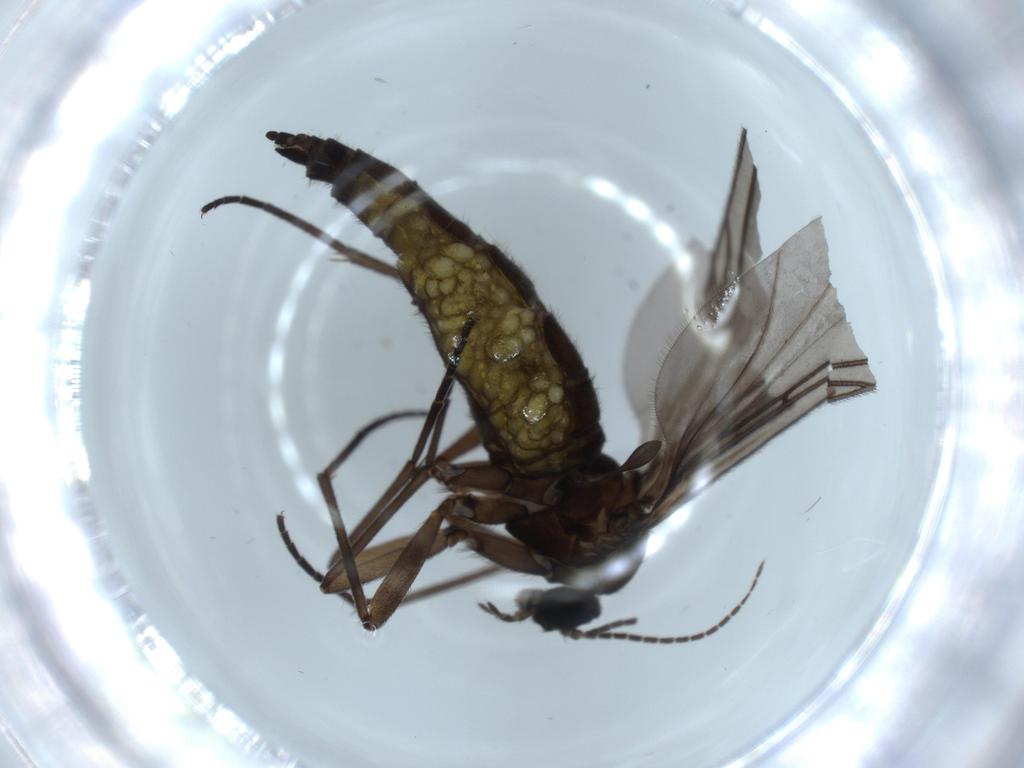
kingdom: Animalia
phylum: Arthropoda
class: Insecta
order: Diptera
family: Sciaridae
